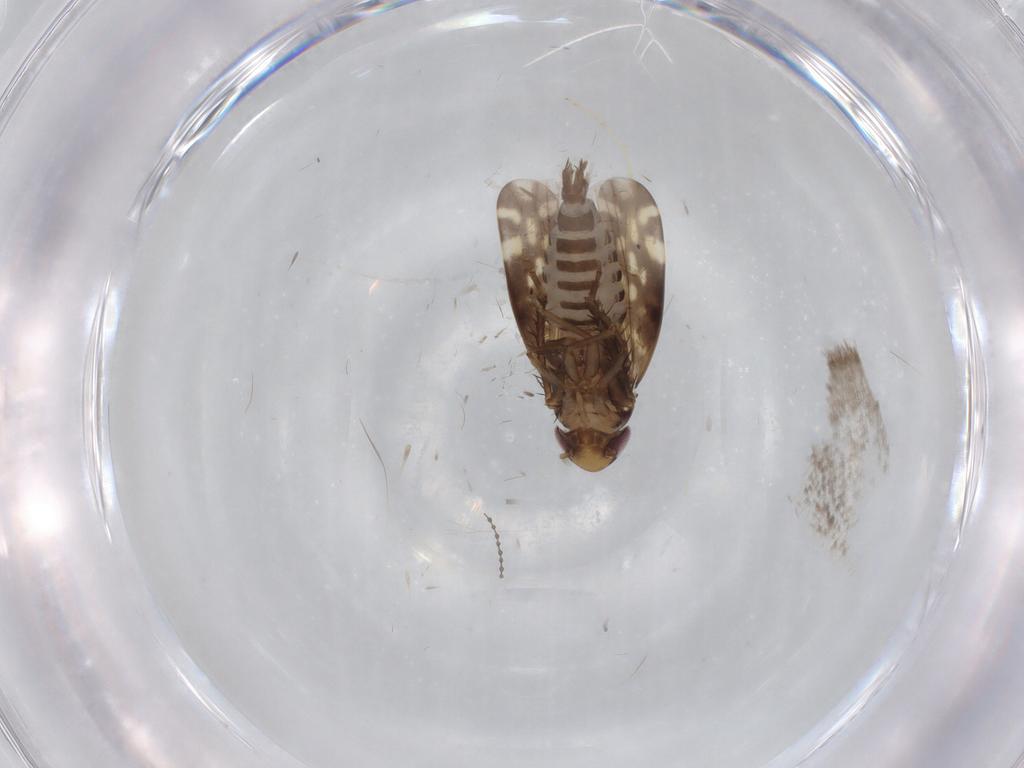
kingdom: Animalia
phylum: Arthropoda
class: Insecta
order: Hemiptera
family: Cicadellidae
